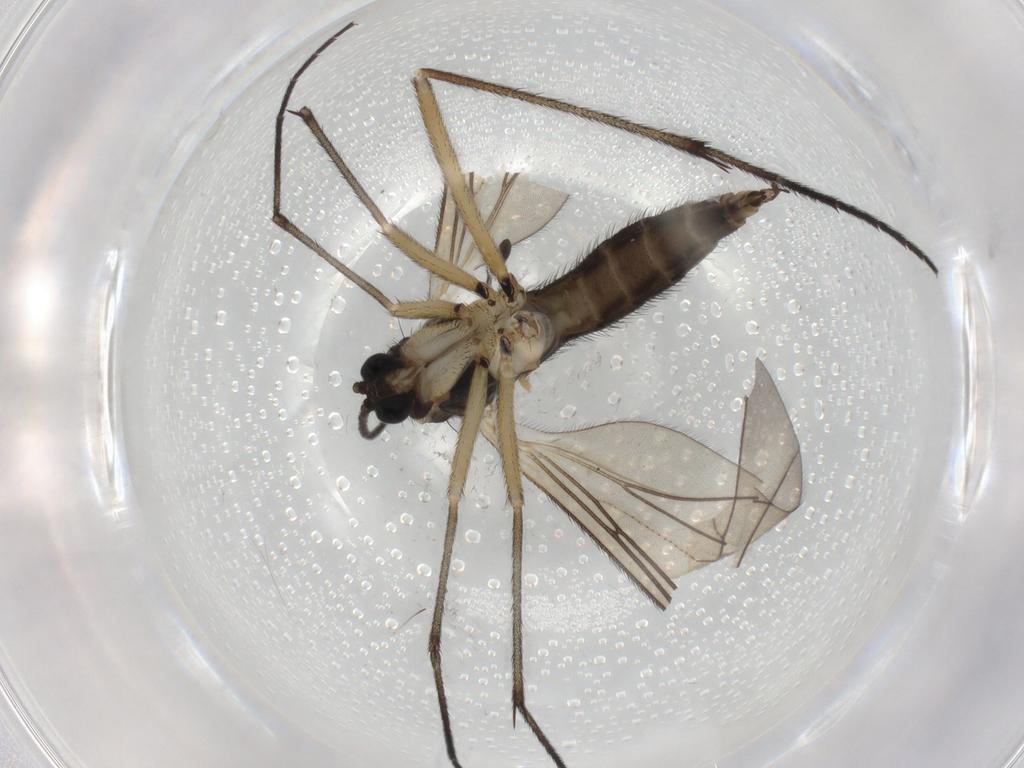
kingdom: Animalia
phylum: Arthropoda
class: Insecta
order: Diptera
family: Sciaridae
